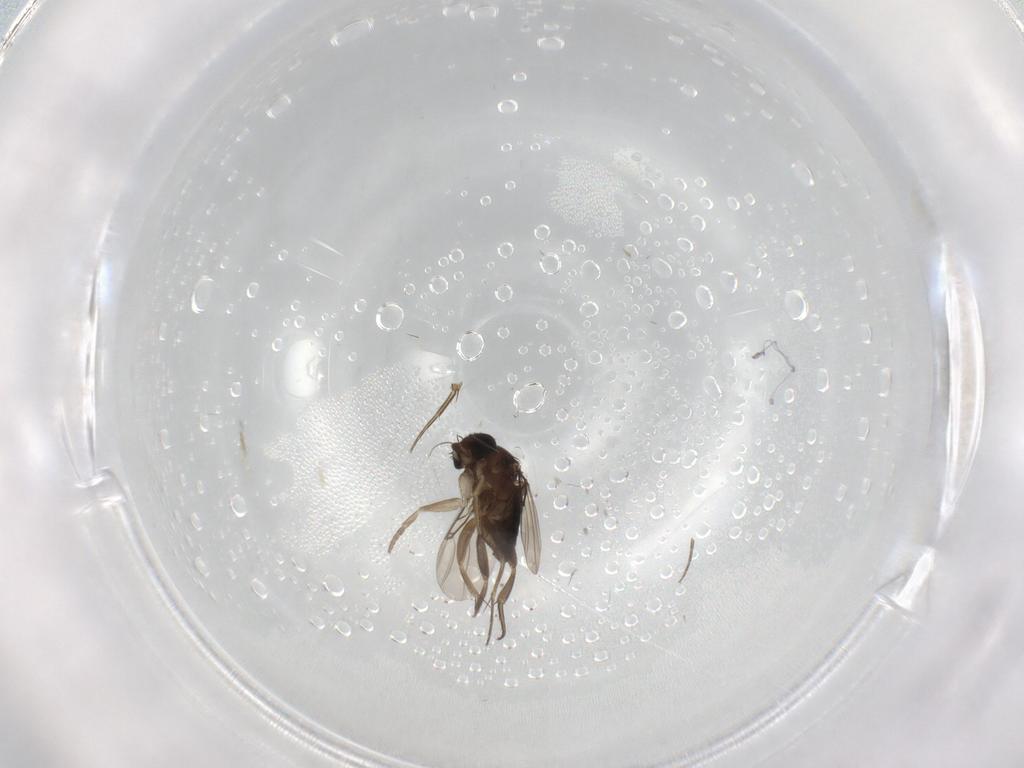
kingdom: Animalia
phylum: Arthropoda
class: Insecta
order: Diptera
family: Phoridae
